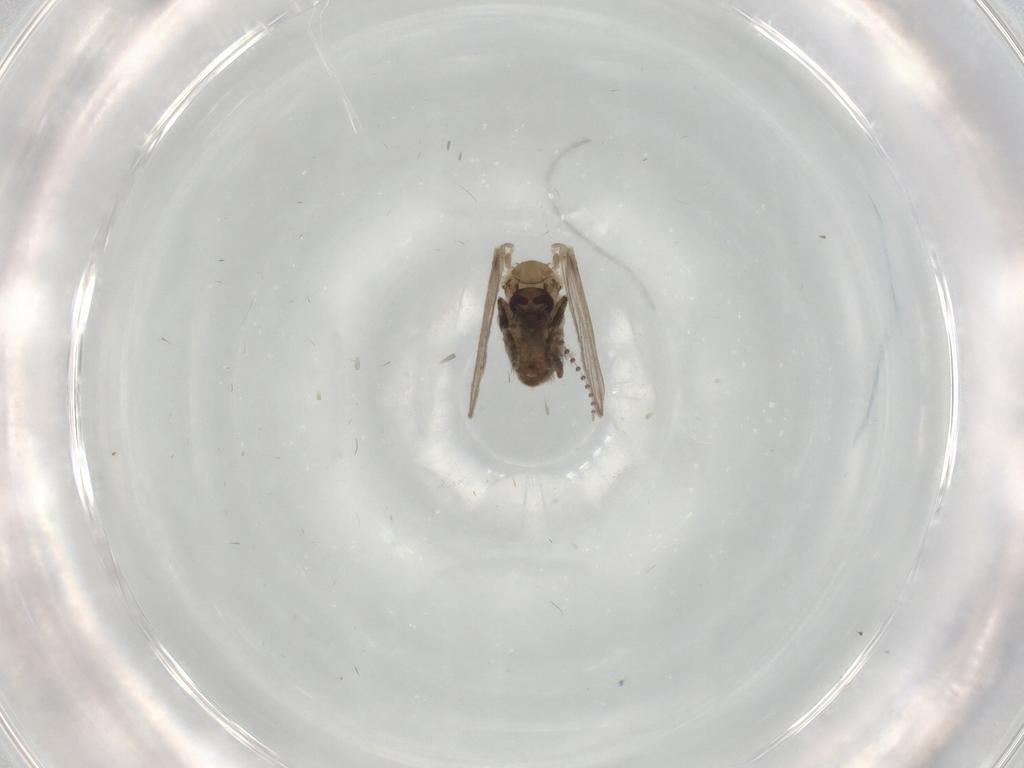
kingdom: Animalia
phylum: Arthropoda
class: Insecta
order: Diptera
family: Psychodidae
